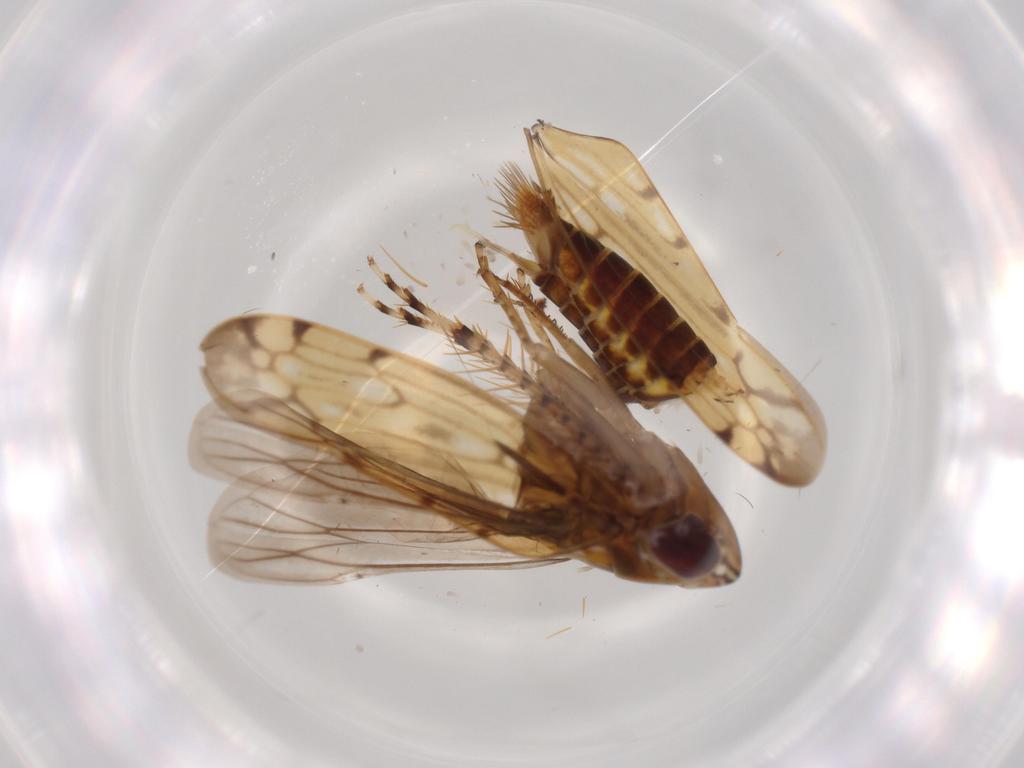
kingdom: Animalia
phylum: Arthropoda
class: Insecta
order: Hemiptera
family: Cicadellidae
